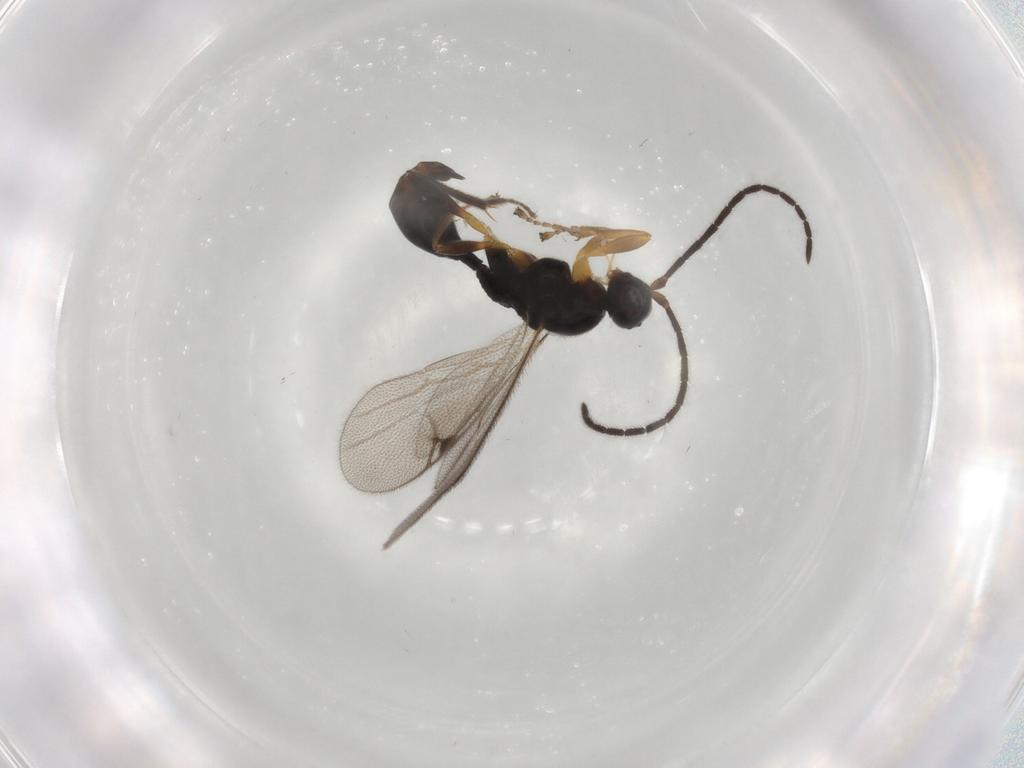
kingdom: Animalia
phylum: Arthropoda
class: Insecta
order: Hymenoptera
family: Proctotrupidae
